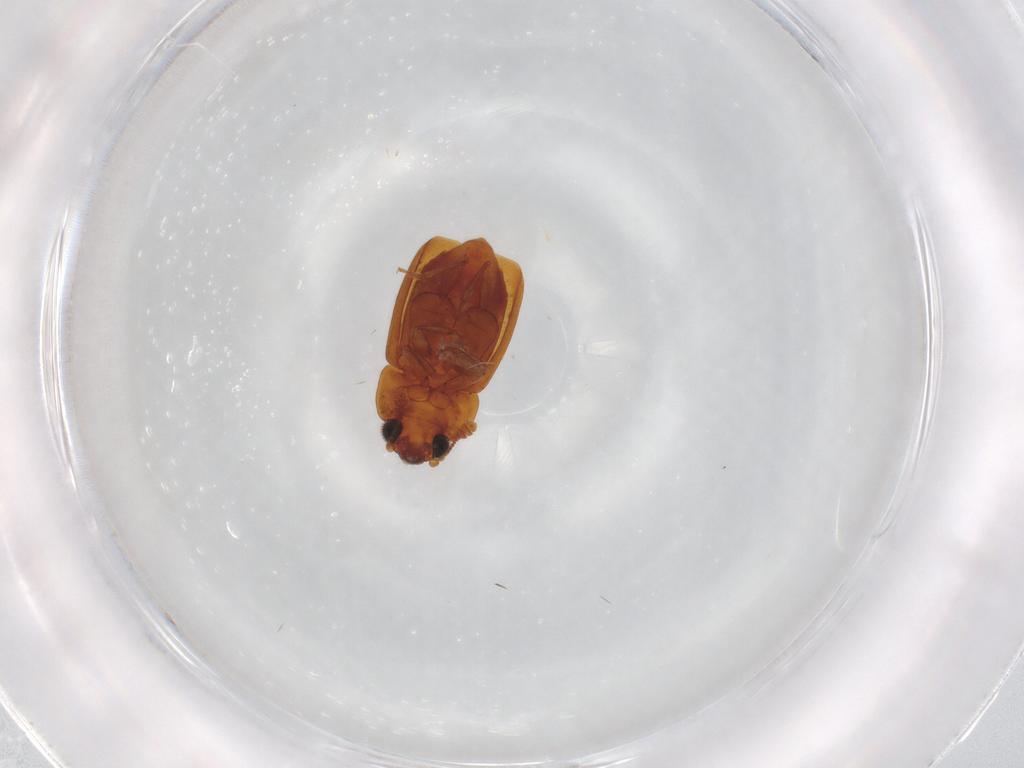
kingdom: Animalia
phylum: Arthropoda
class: Insecta
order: Coleoptera
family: Nitidulidae
